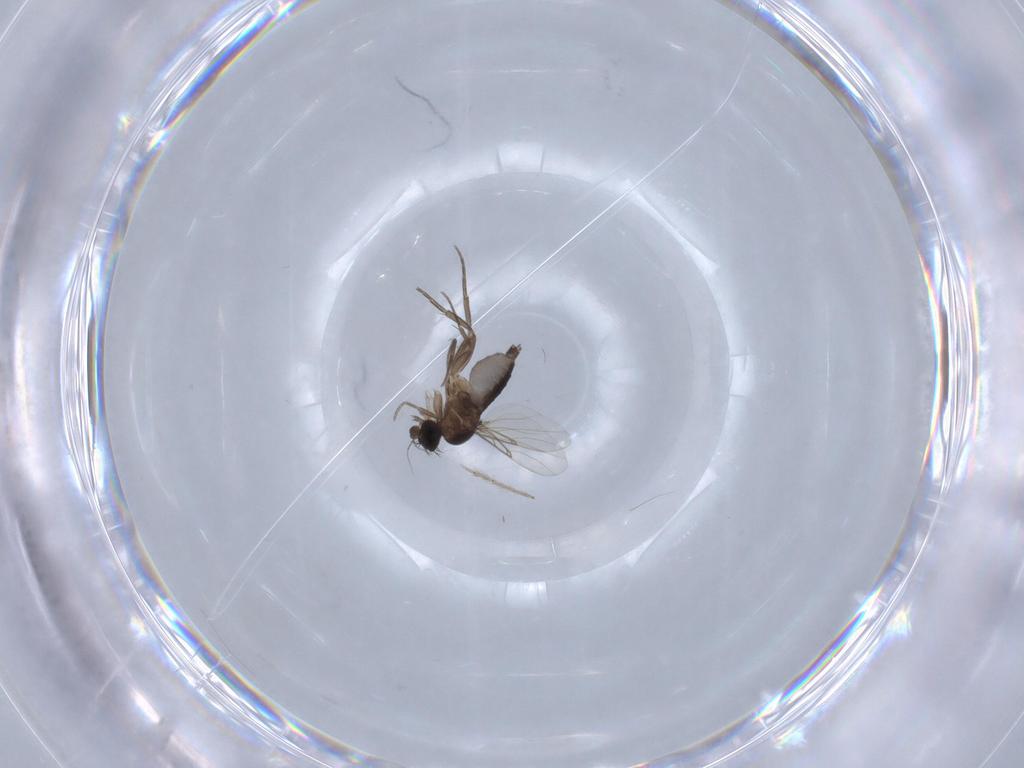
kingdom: Animalia
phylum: Arthropoda
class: Insecta
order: Diptera
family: Phoridae
